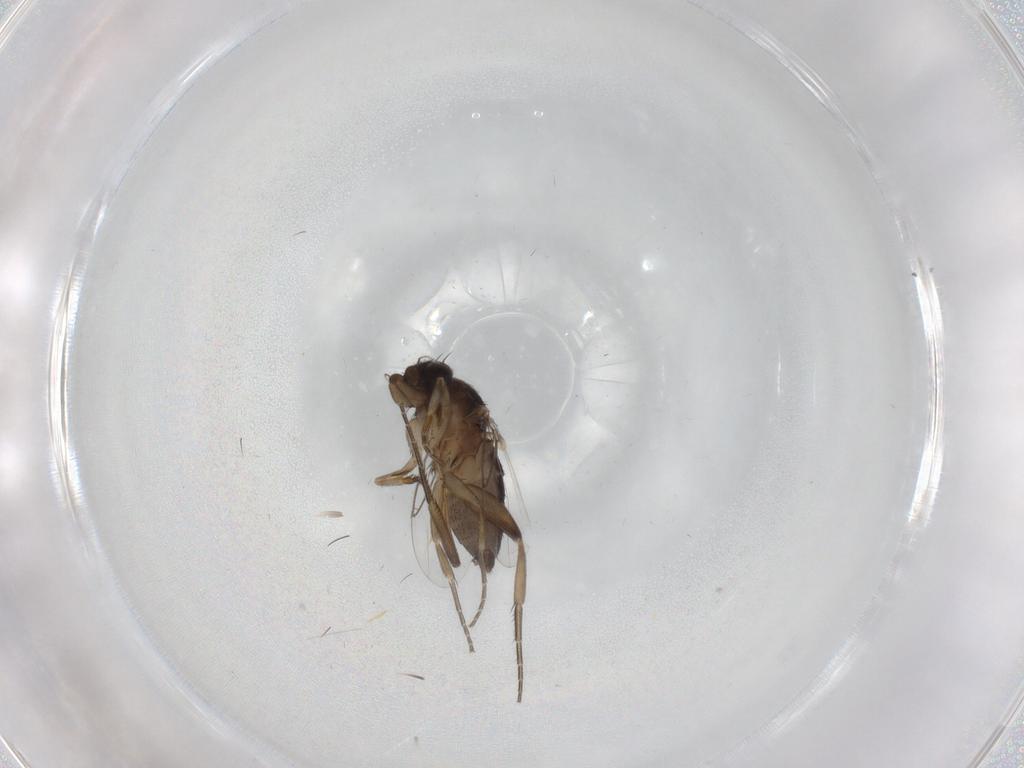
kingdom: Animalia
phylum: Arthropoda
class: Insecta
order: Diptera
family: Phoridae
